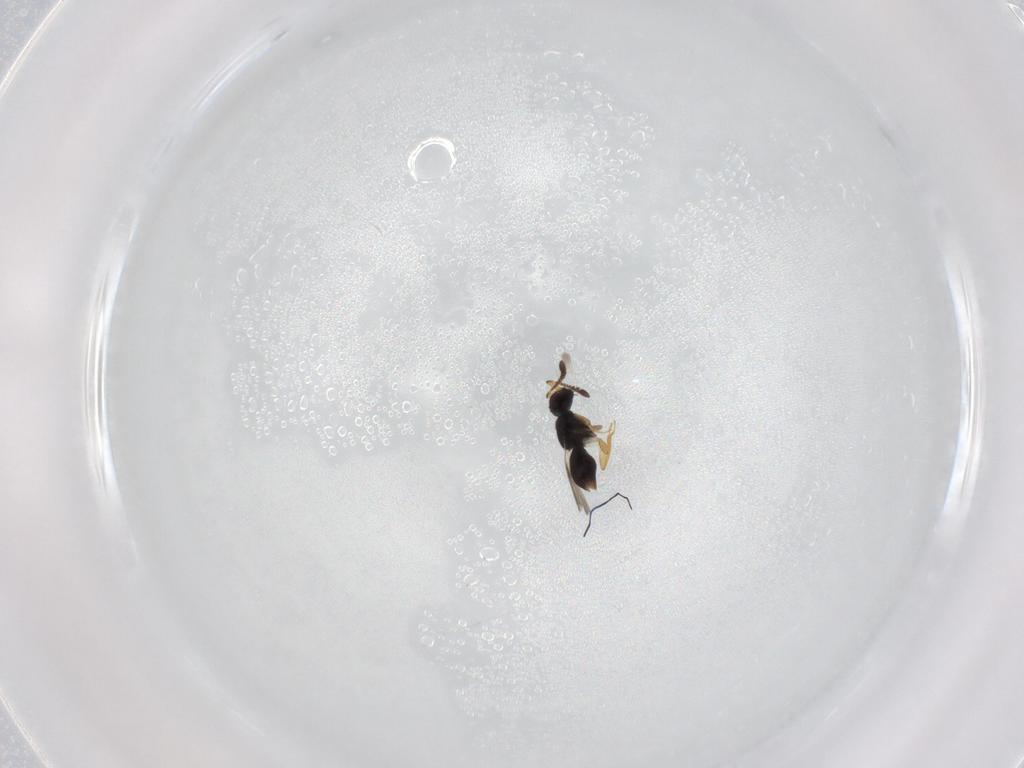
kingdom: Animalia
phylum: Arthropoda
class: Insecta
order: Hymenoptera
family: Ceraphronidae
